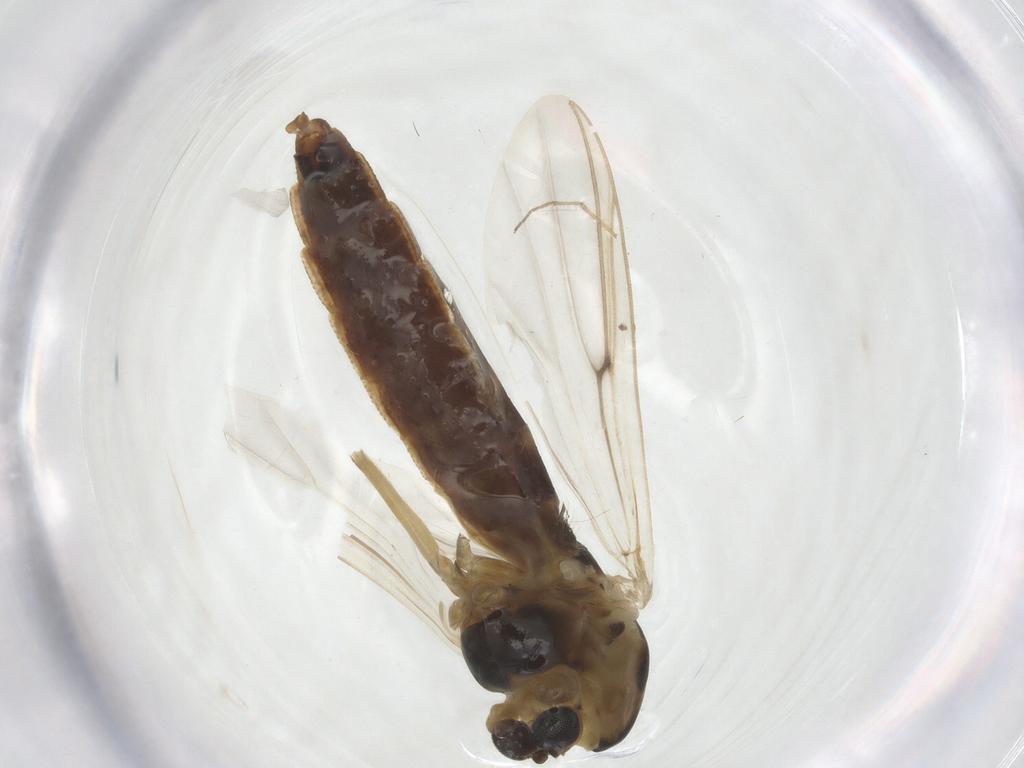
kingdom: Animalia
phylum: Arthropoda
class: Insecta
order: Diptera
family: Chironomidae
